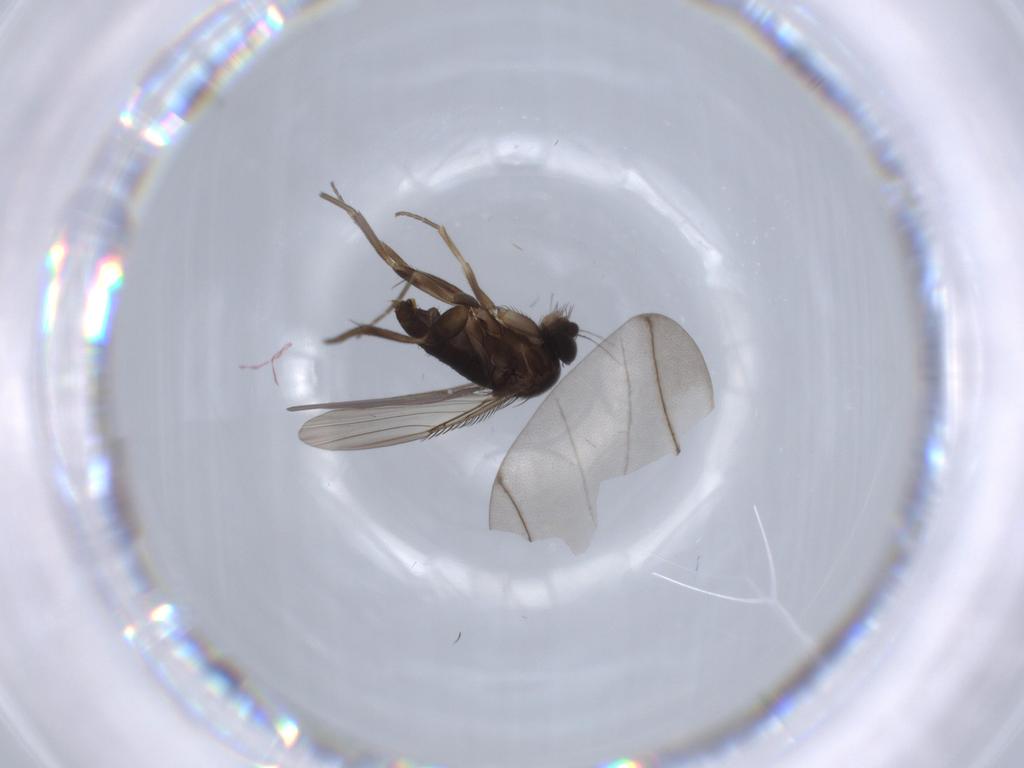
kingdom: Animalia
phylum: Arthropoda
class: Insecta
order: Diptera
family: Phoridae
